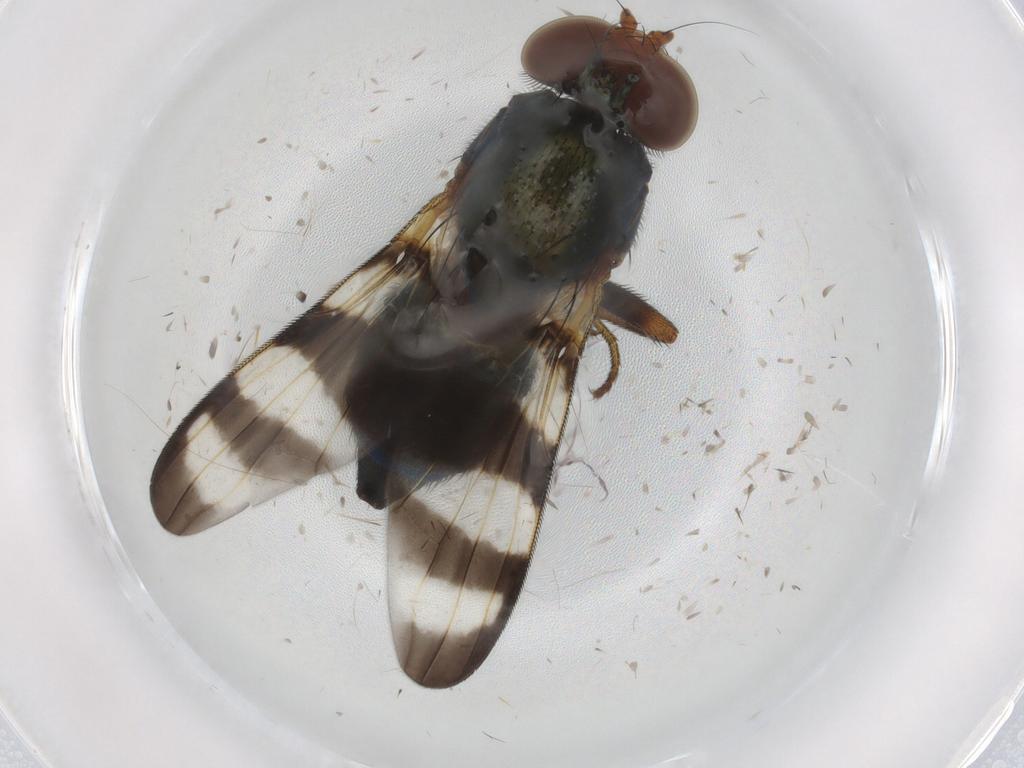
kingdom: Animalia
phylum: Arthropoda
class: Insecta
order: Diptera
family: Ulidiidae
